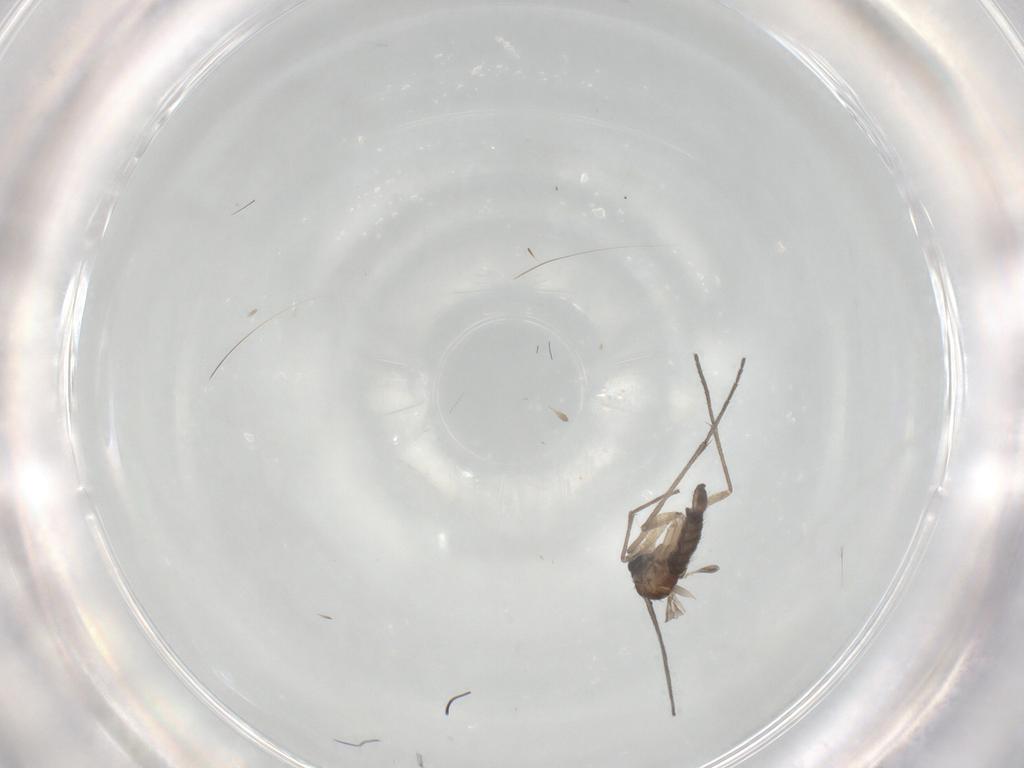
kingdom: Animalia
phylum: Arthropoda
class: Insecta
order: Diptera
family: Sciaridae
